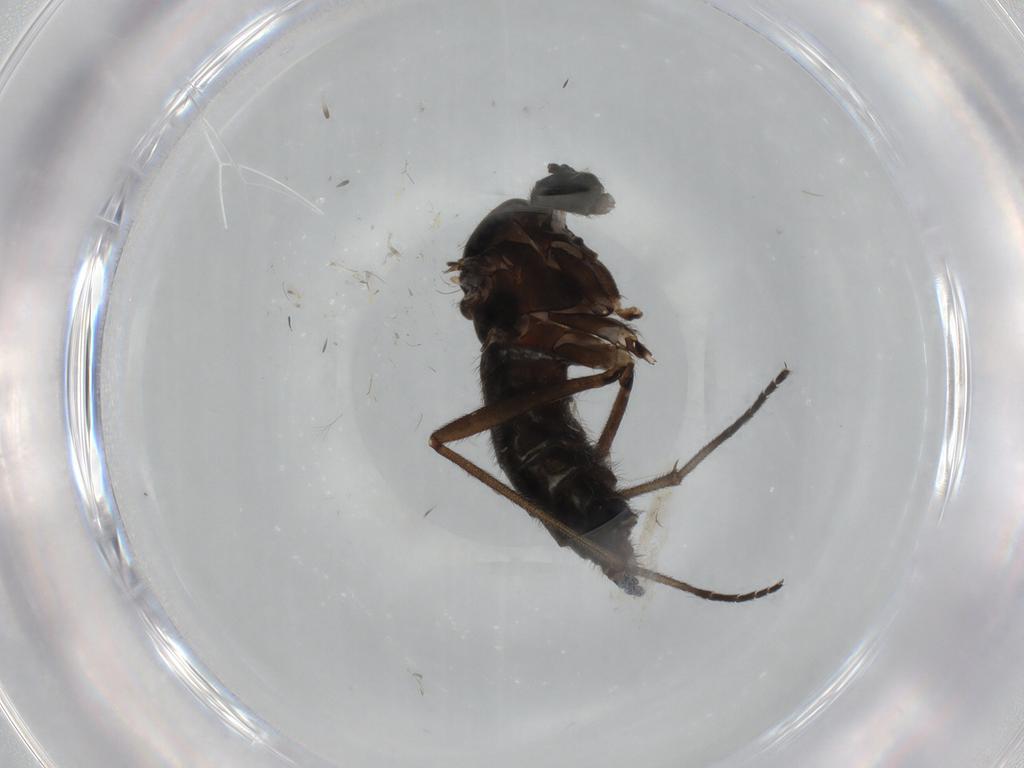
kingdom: Animalia
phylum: Arthropoda
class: Insecta
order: Diptera
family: Sciaridae
